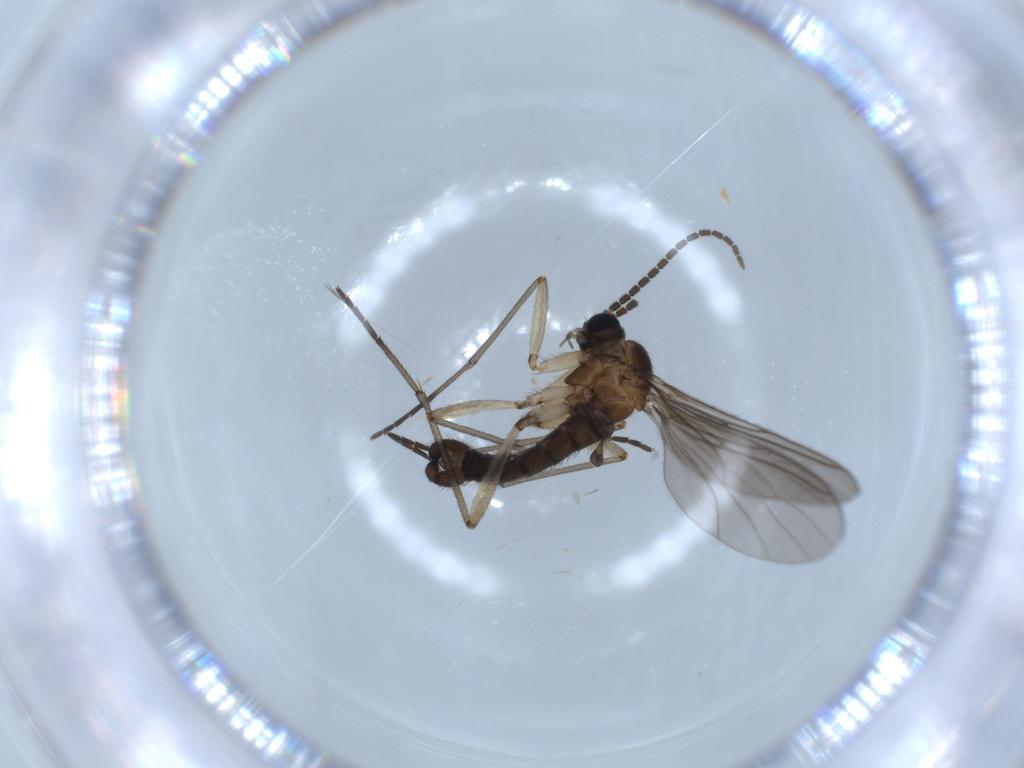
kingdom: Animalia
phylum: Arthropoda
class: Insecta
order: Diptera
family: Sciaridae
